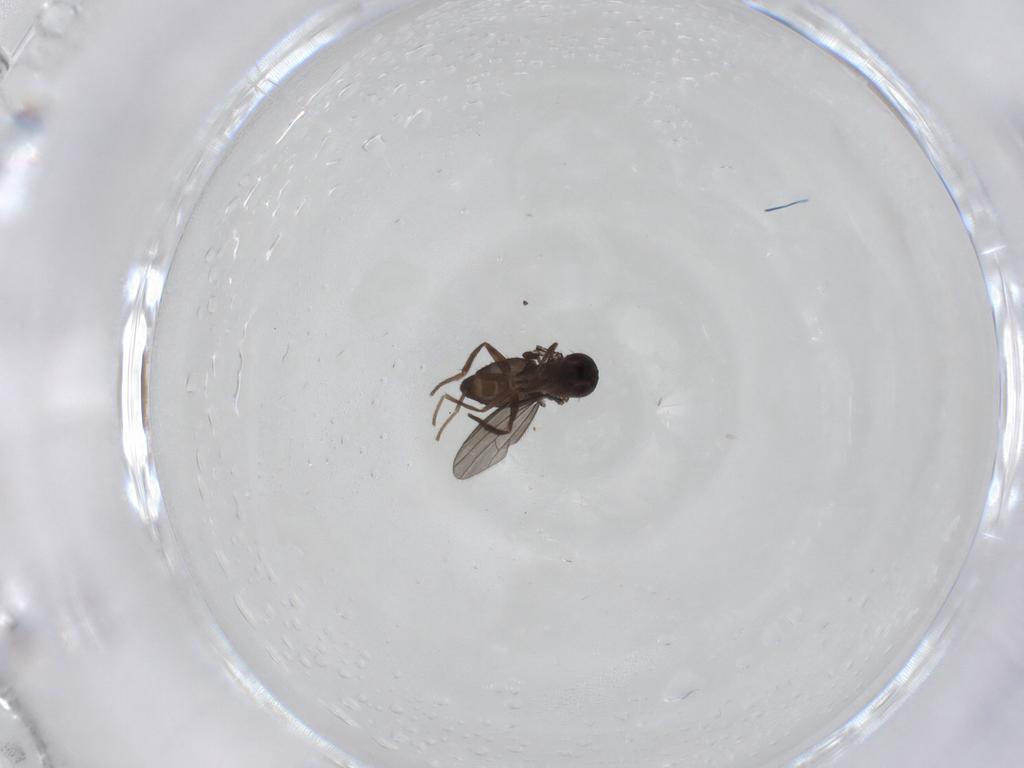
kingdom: Animalia
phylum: Arthropoda
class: Insecta
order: Diptera
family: Dolichopodidae
